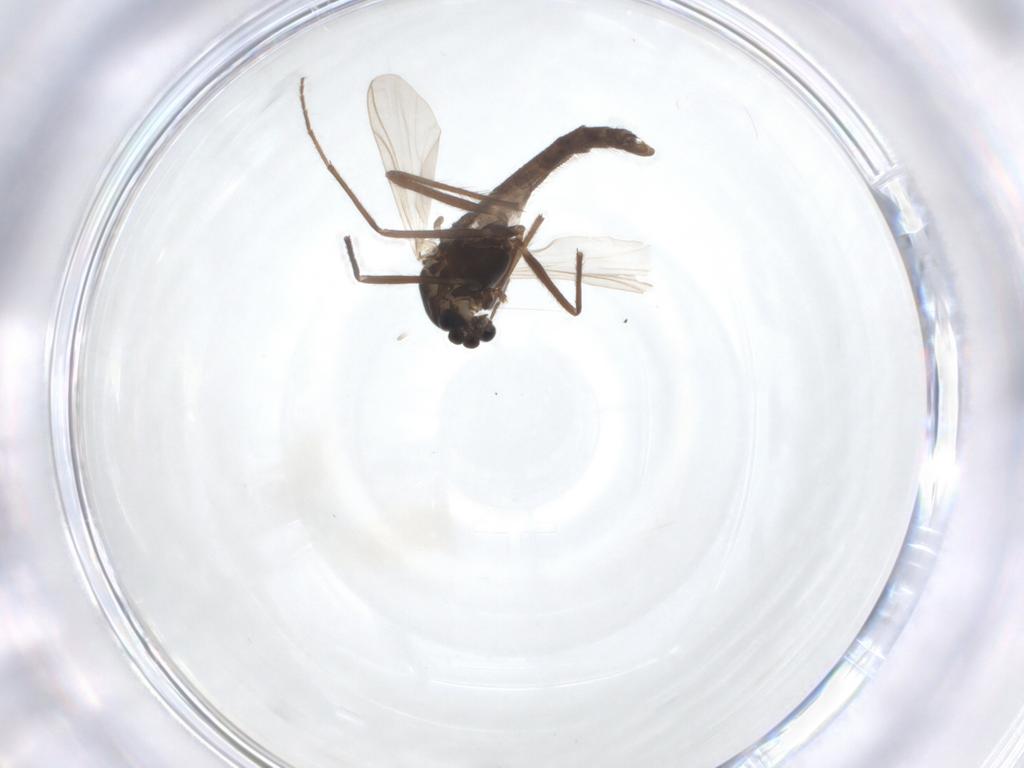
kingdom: Animalia
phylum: Arthropoda
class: Insecta
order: Diptera
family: Chironomidae
